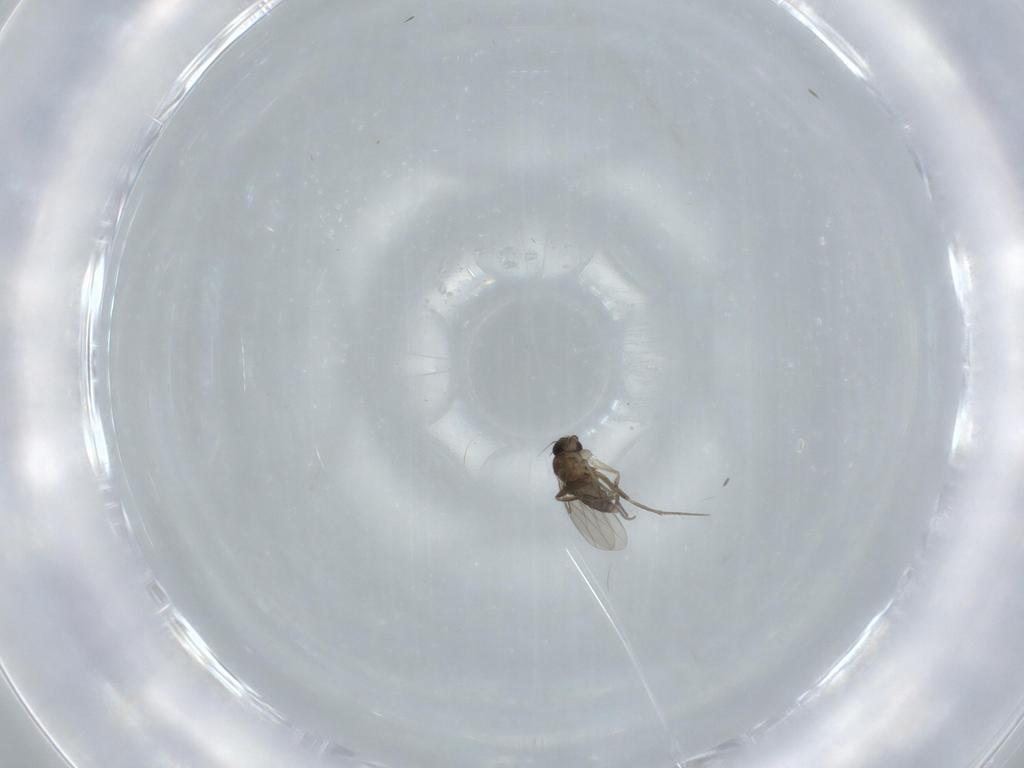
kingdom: Animalia
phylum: Arthropoda
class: Insecta
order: Diptera
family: Phoridae
